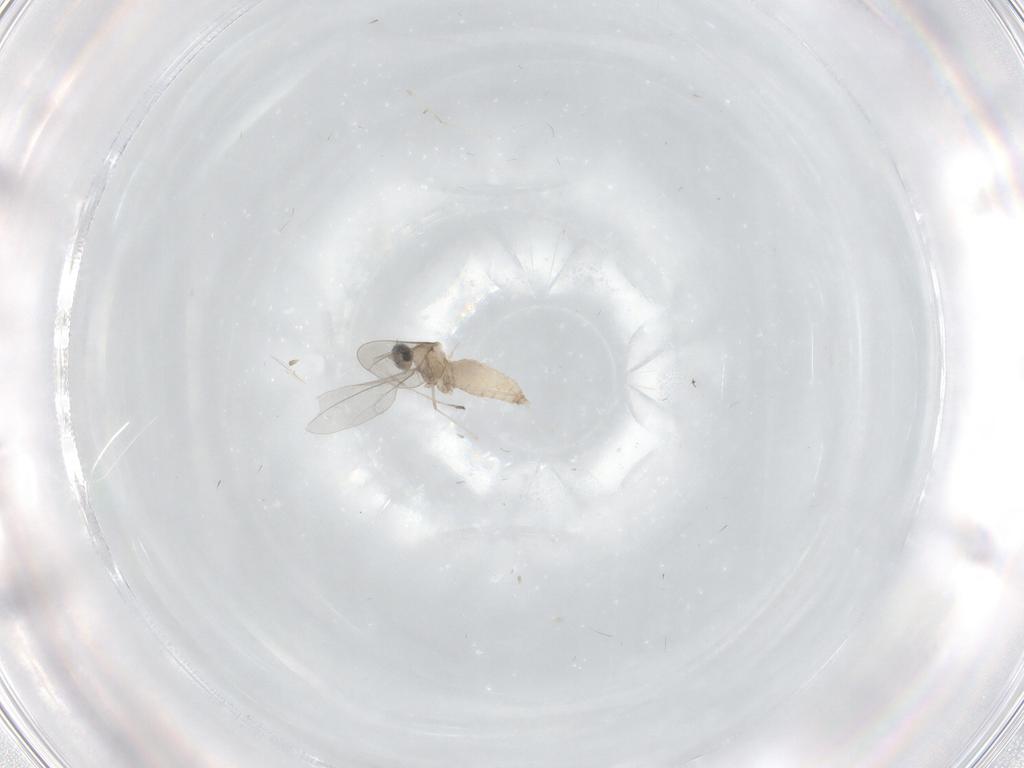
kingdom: Animalia
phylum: Arthropoda
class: Insecta
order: Diptera
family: Cecidomyiidae
